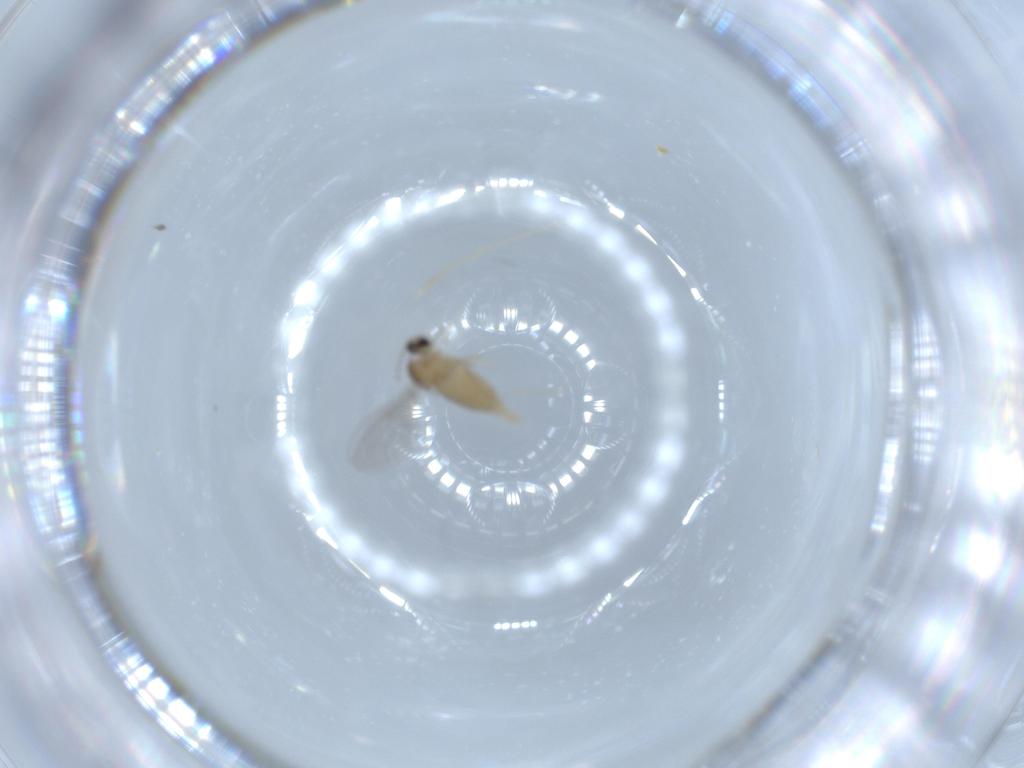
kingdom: Animalia
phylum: Arthropoda
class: Insecta
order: Diptera
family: Cecidomyiidae
